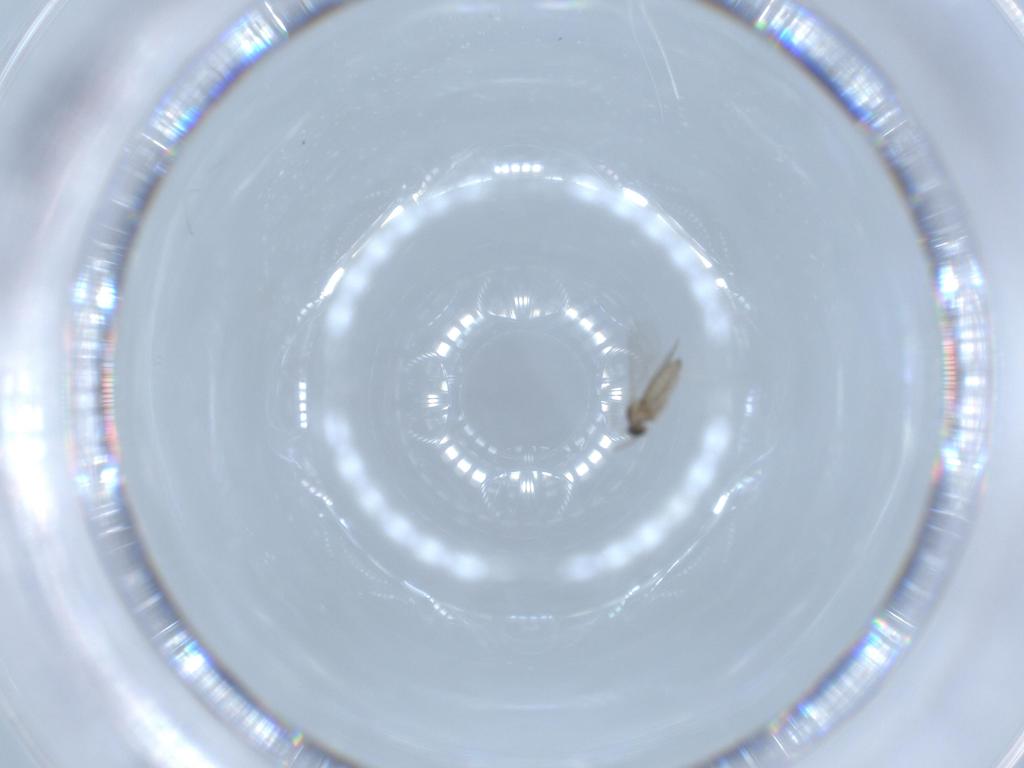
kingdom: Animalia
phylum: Arthropoda
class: Insecta
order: Diptera
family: Cecidomyiidae
